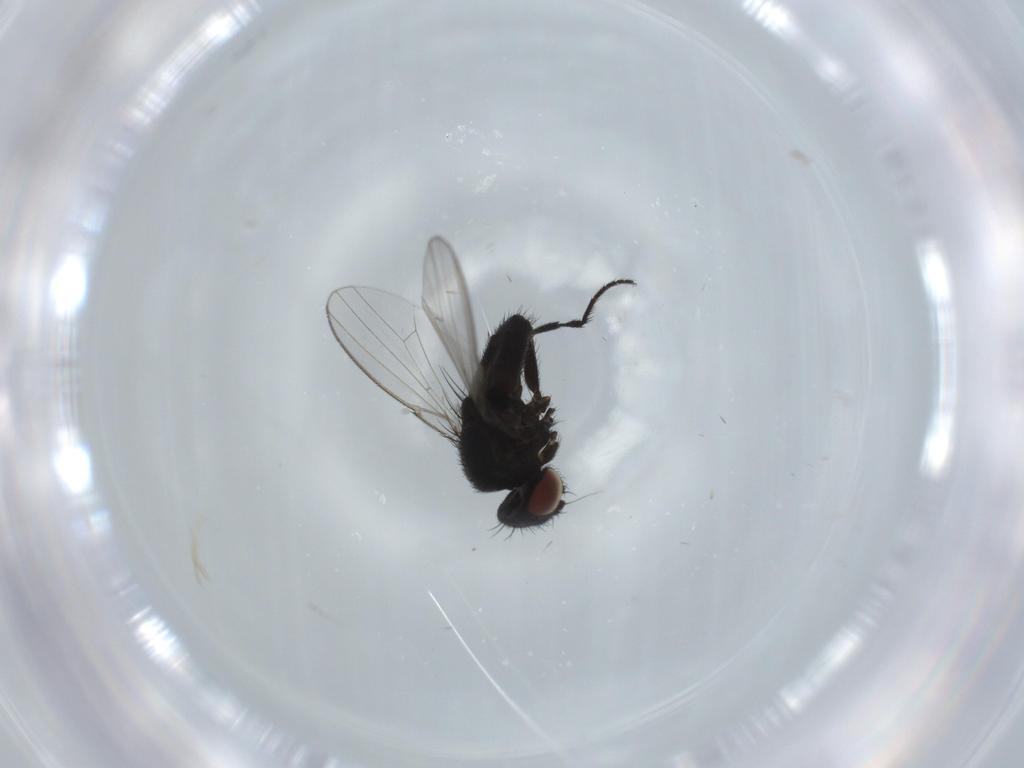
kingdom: Animalia
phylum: Arthropoda
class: Insecta
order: Diptera
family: Milichiidae
